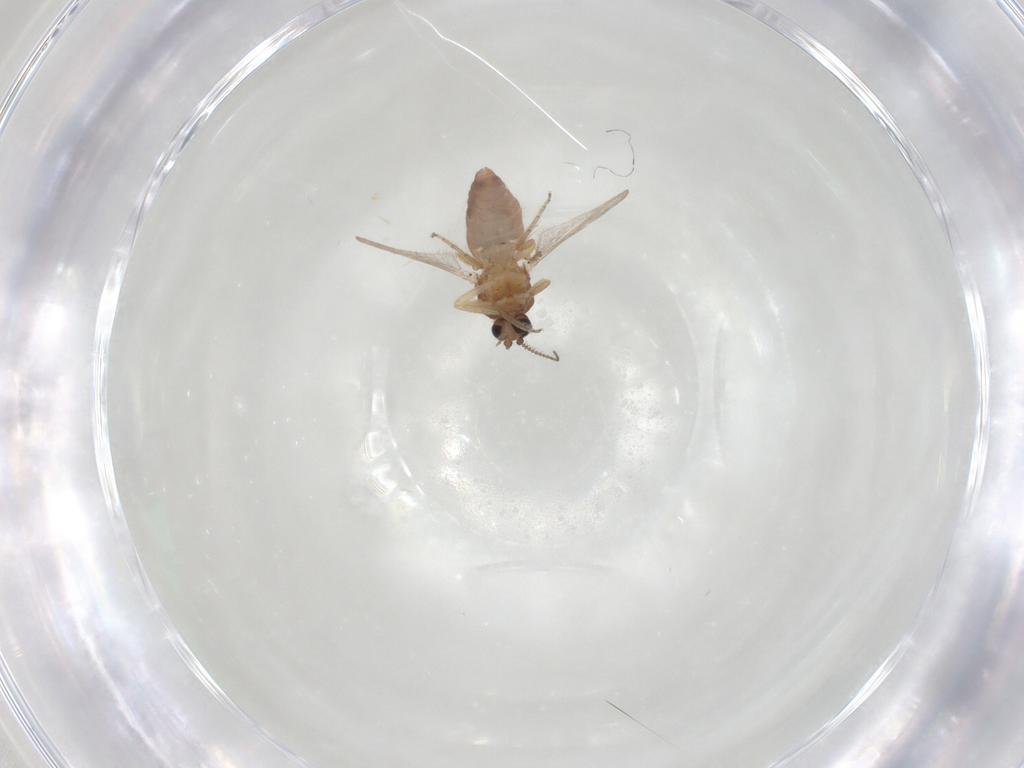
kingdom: Animalia
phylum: Arthropoda
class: Insecta
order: Diptera
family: Ceratopogonidae
